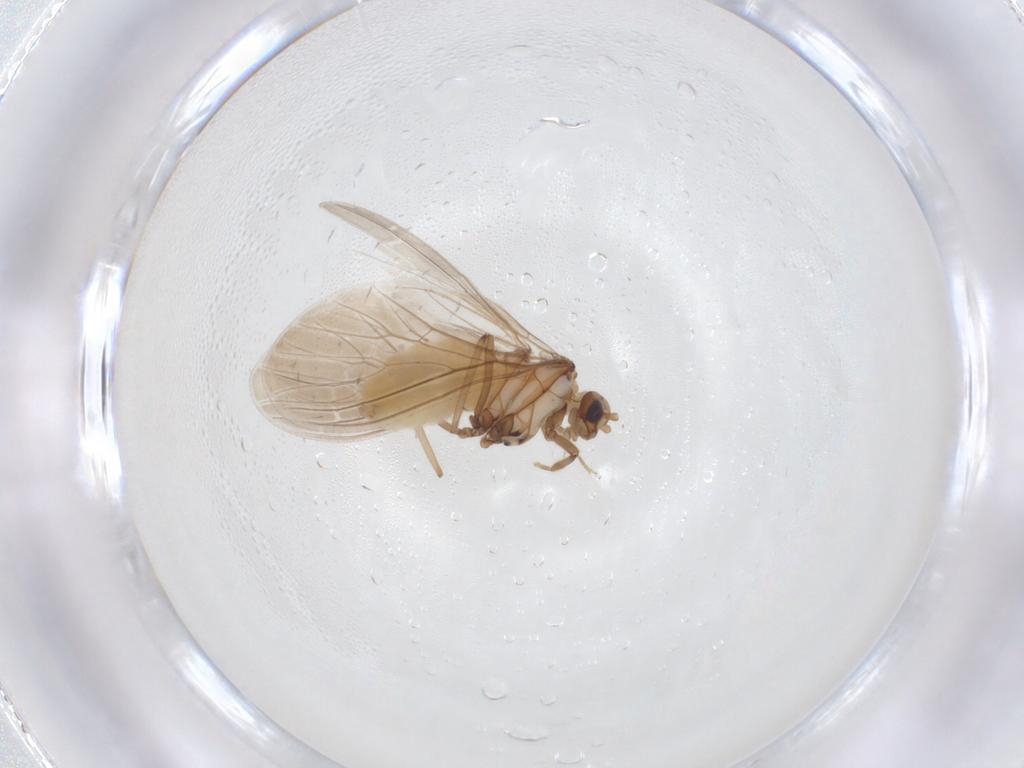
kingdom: Animalia
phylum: Arthropoda
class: Insecta
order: Neuroptera
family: Coniopterygidae
